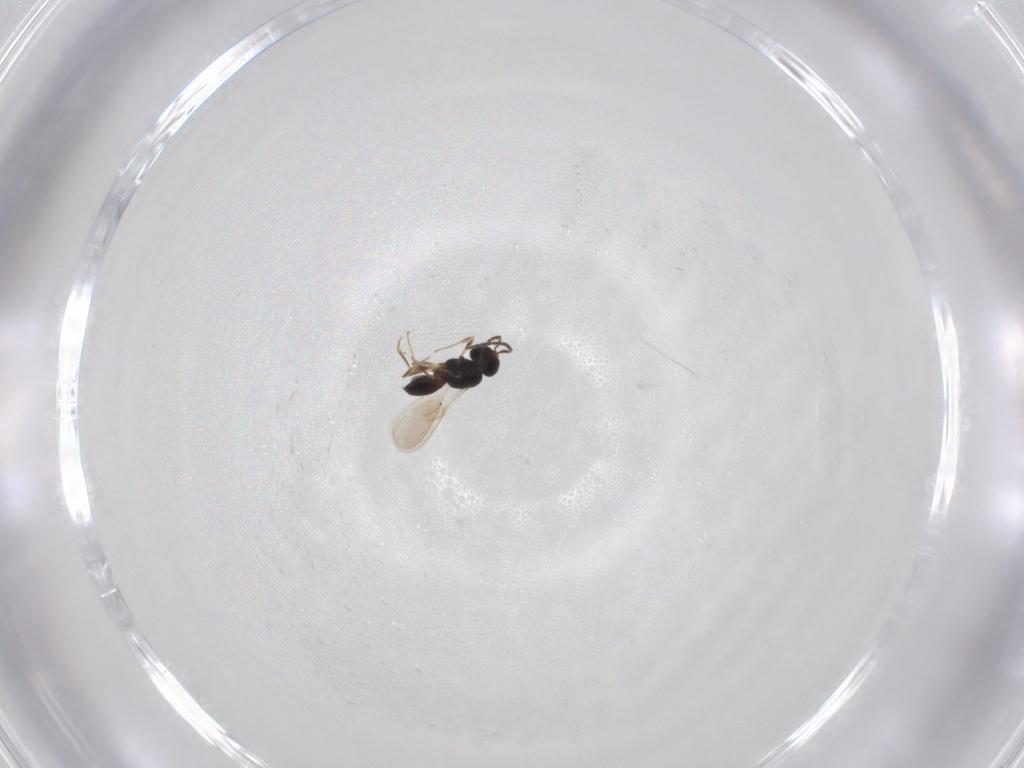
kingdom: Animalia
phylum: Arthropoda
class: Insecta
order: Hymenoptera
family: Scelionidae
